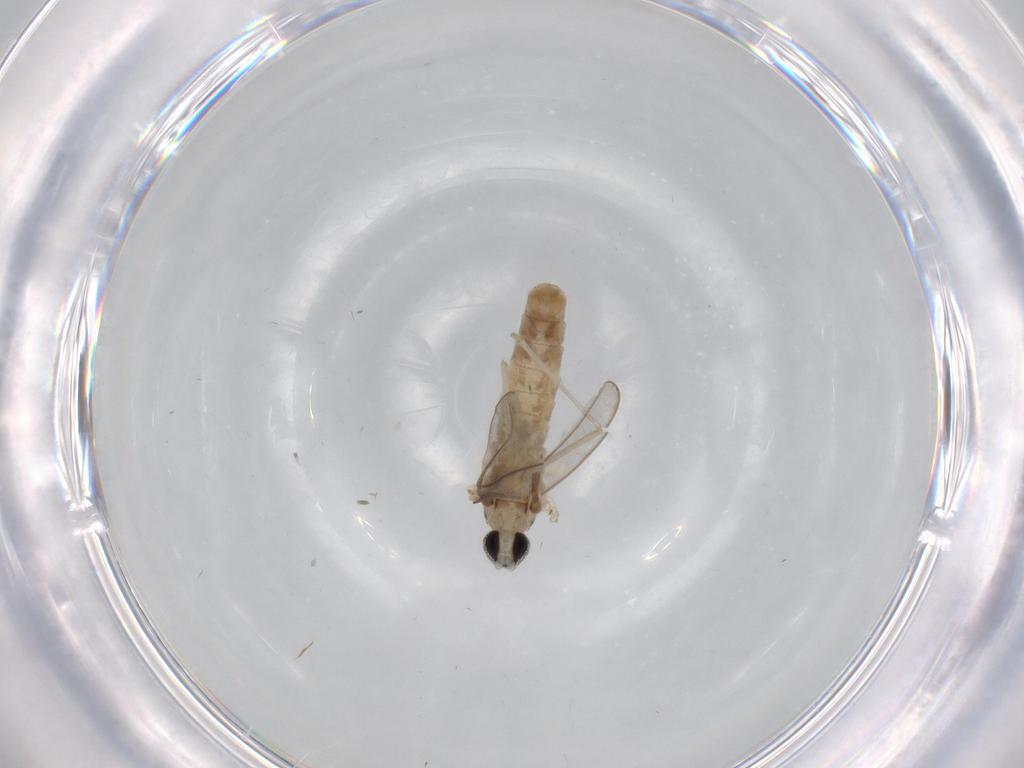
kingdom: Animalia
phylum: Arthropoda
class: Insecta
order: Diptera
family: Cecidomyiidae
